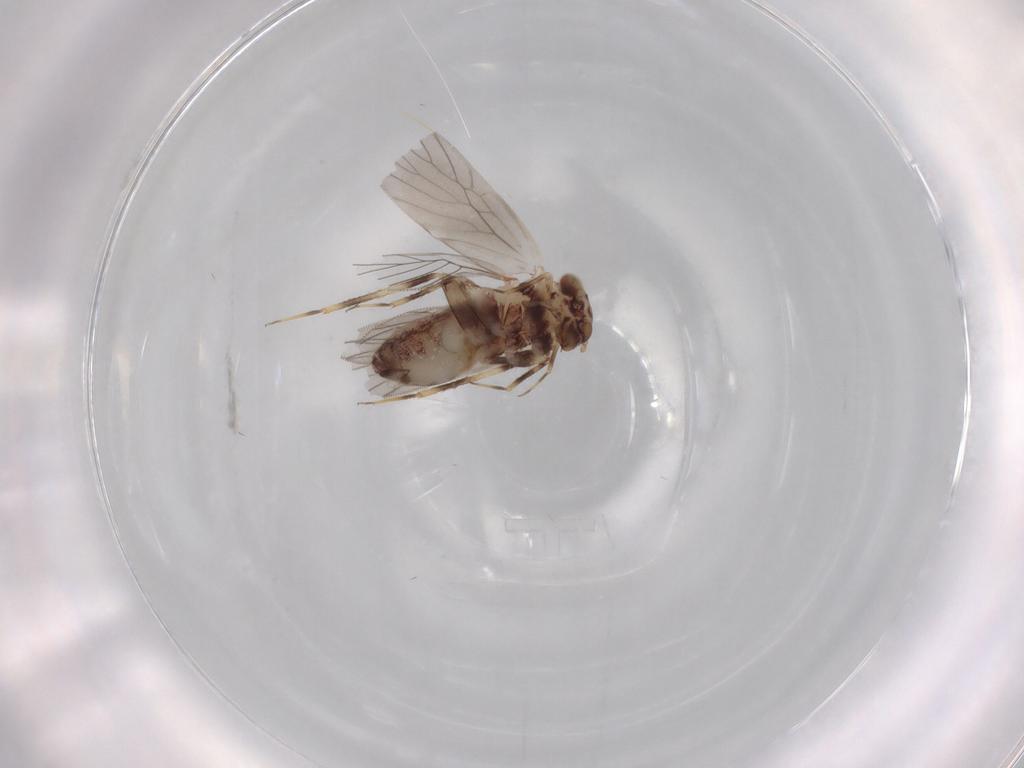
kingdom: Animalia
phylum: Arthropoda
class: Insecta
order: Psocodea
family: Lepidopsocidae
